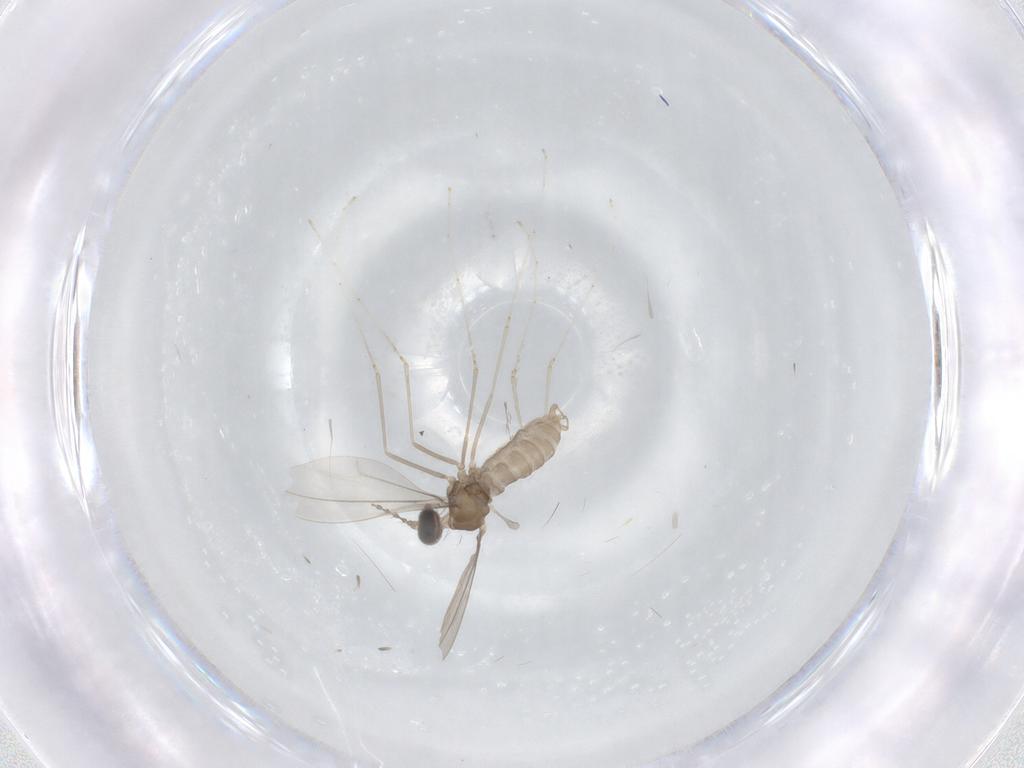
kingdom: Animalia
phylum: Arthropoda
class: Insecta
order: Diptera
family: Cecidomyiidae
